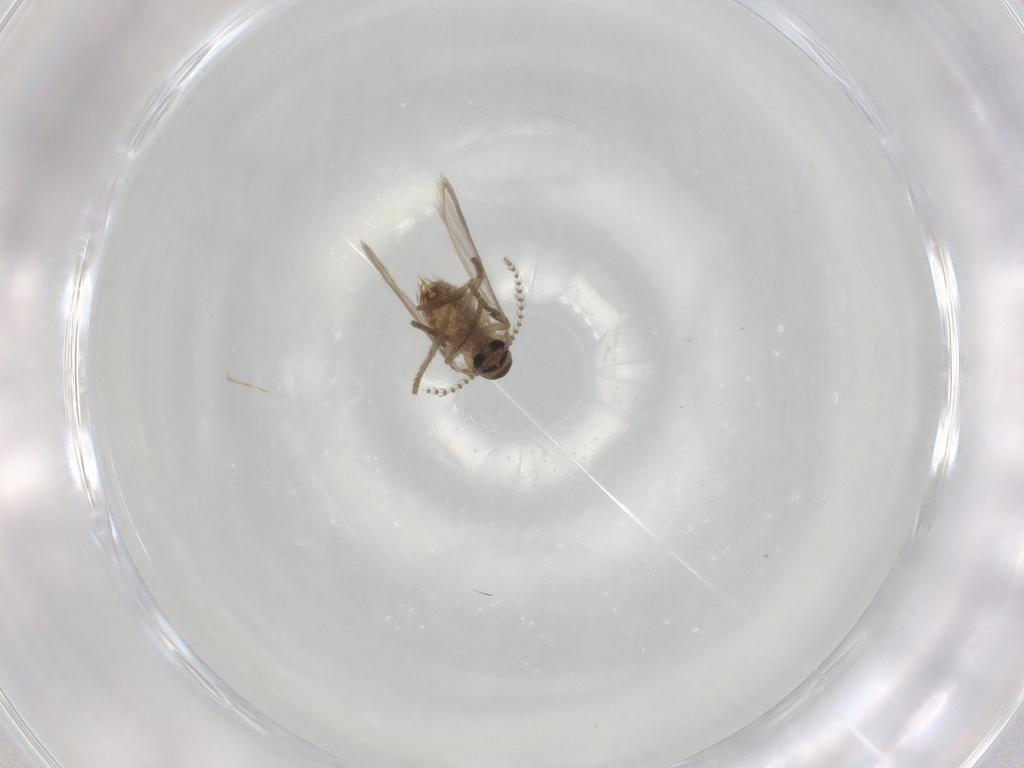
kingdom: Animalia
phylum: Arthropoda
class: Insecta
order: Diptera
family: Psychodidae
